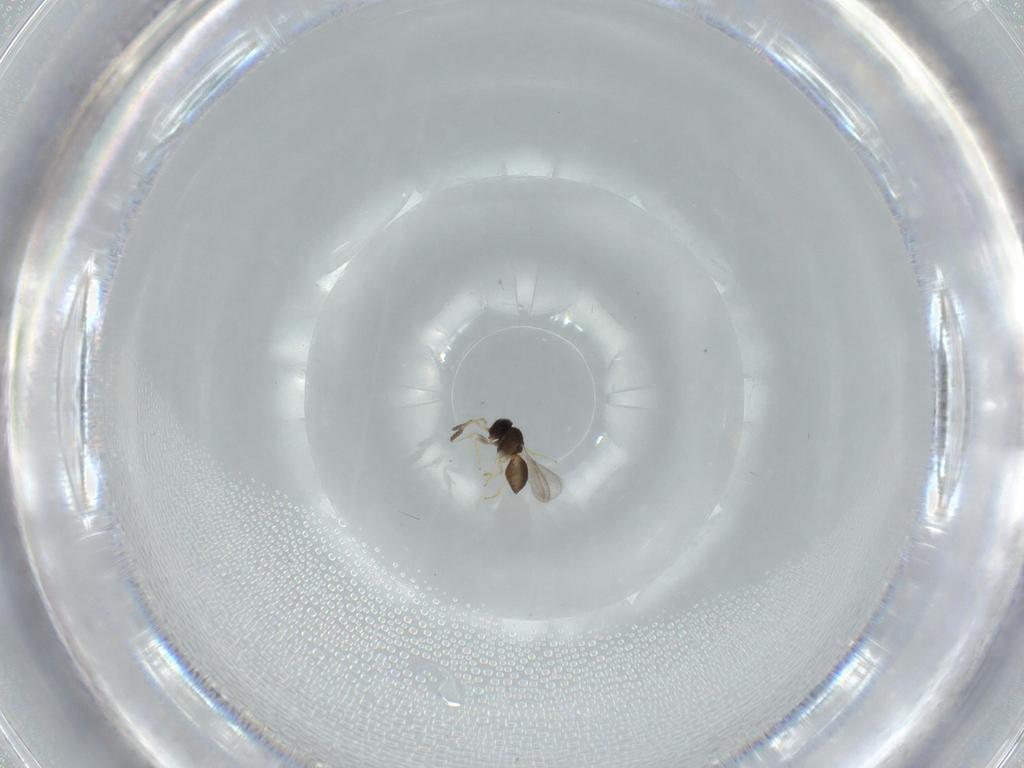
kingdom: Animalia
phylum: Arthropoda
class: Insecta
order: Hymenoptera
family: Scelionidae
